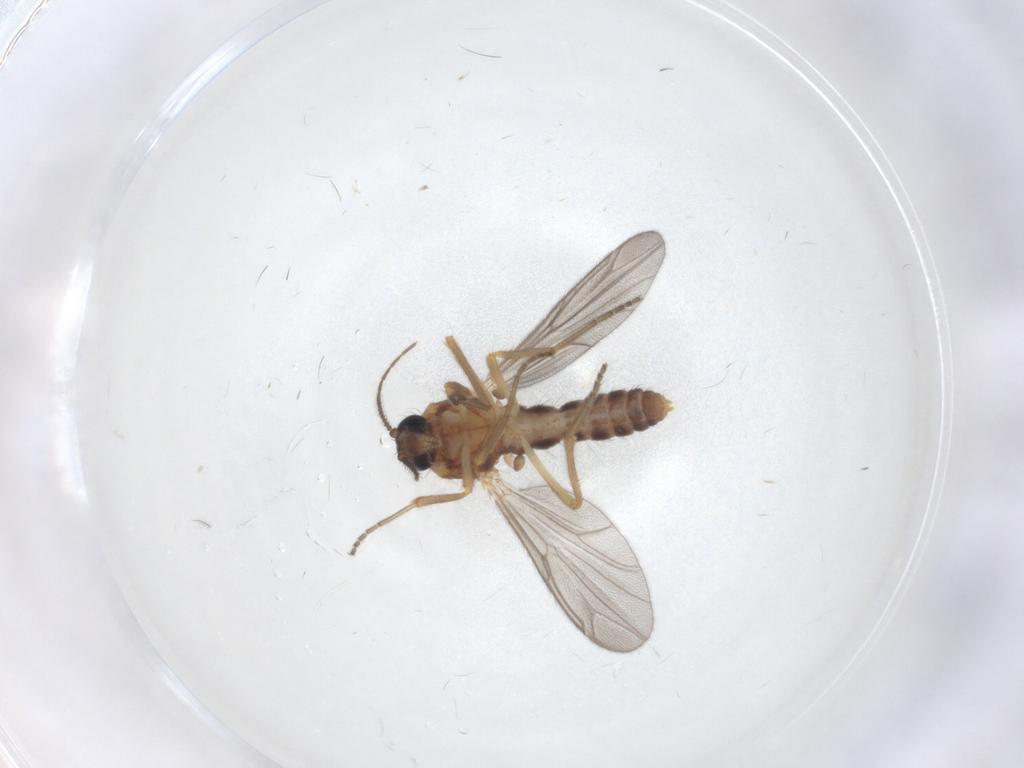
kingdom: Animalia
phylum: Arthropoda
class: Insecta
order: Diptera
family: Ceratopogonidae
